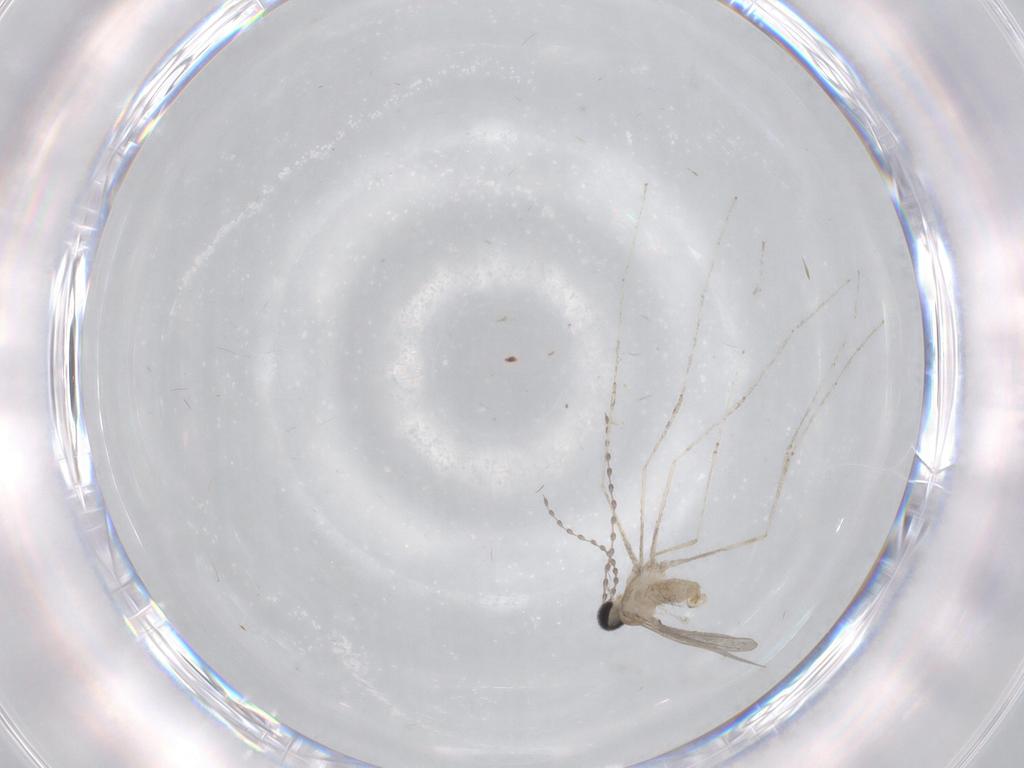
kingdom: Animalia
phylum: Arthropoda
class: Insecta
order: Diptera
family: Cecidomyiidae
